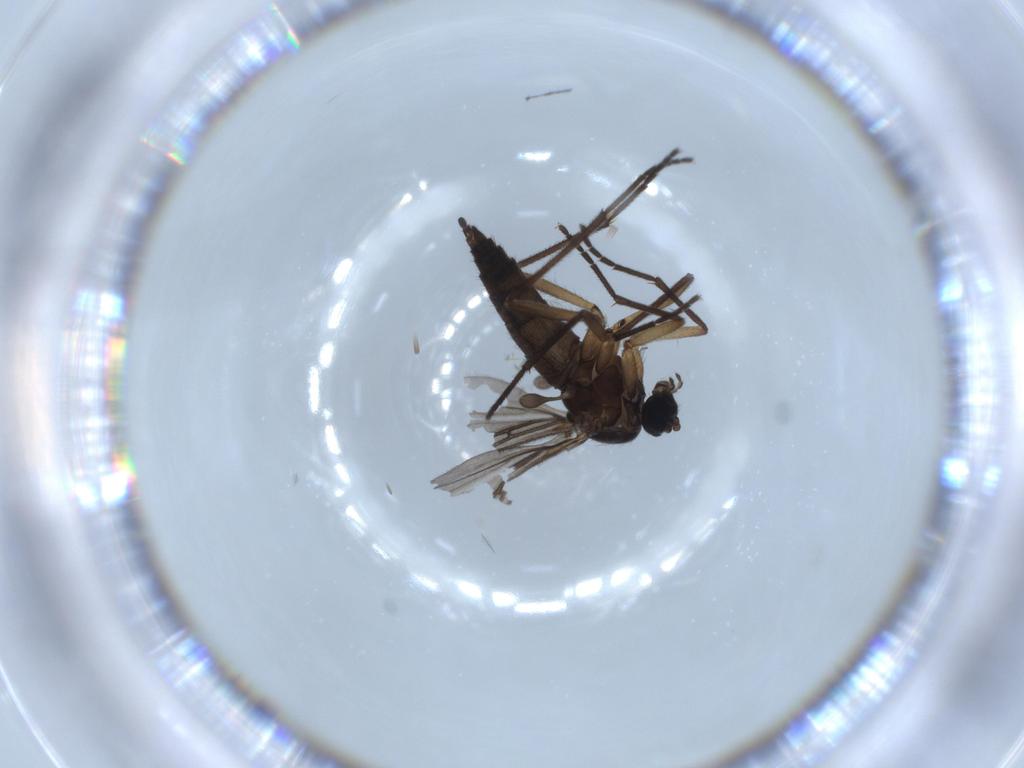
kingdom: Animalia
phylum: Arthropoda
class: Insecta
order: Diptera
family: Sciaridae
